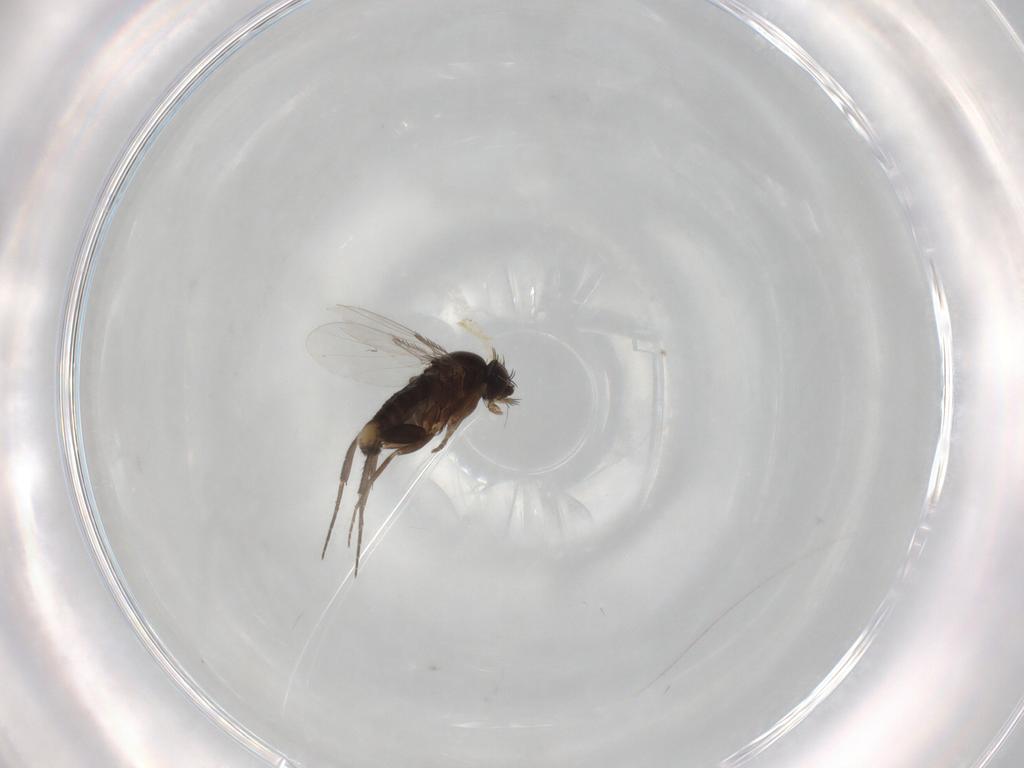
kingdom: Animalia
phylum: Arthropoda
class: Insecta
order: Diptera
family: Phoridae
